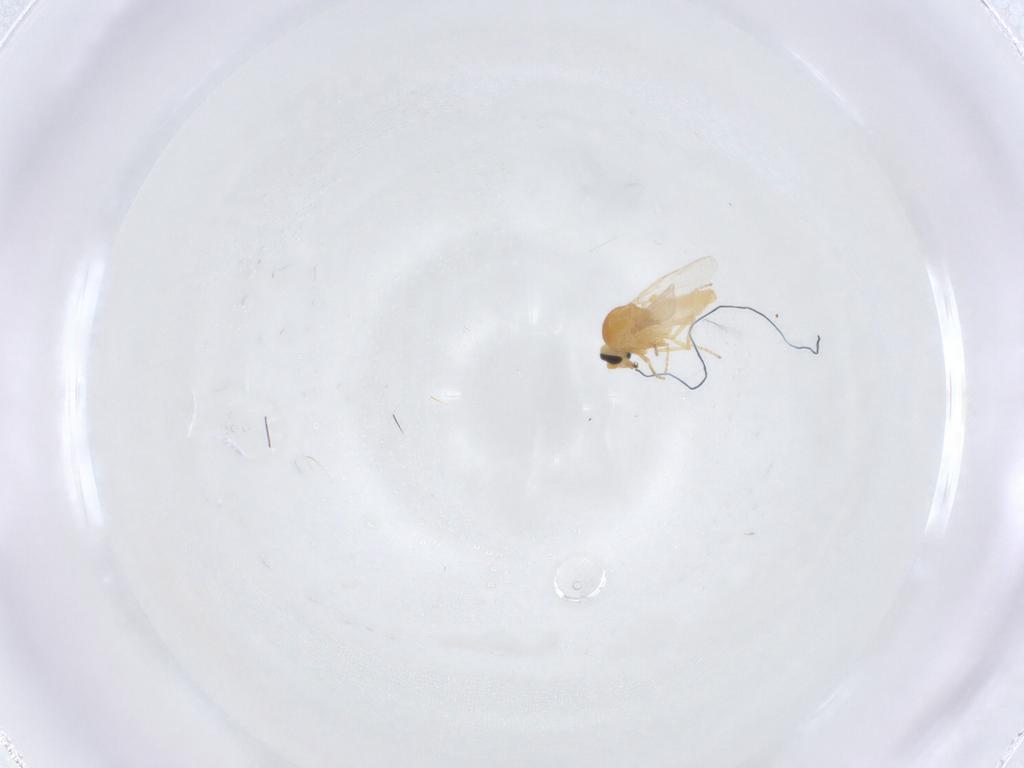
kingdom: Animalia
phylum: Arthropoda
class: Insecta
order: Diptera
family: Ceratopogonidae
